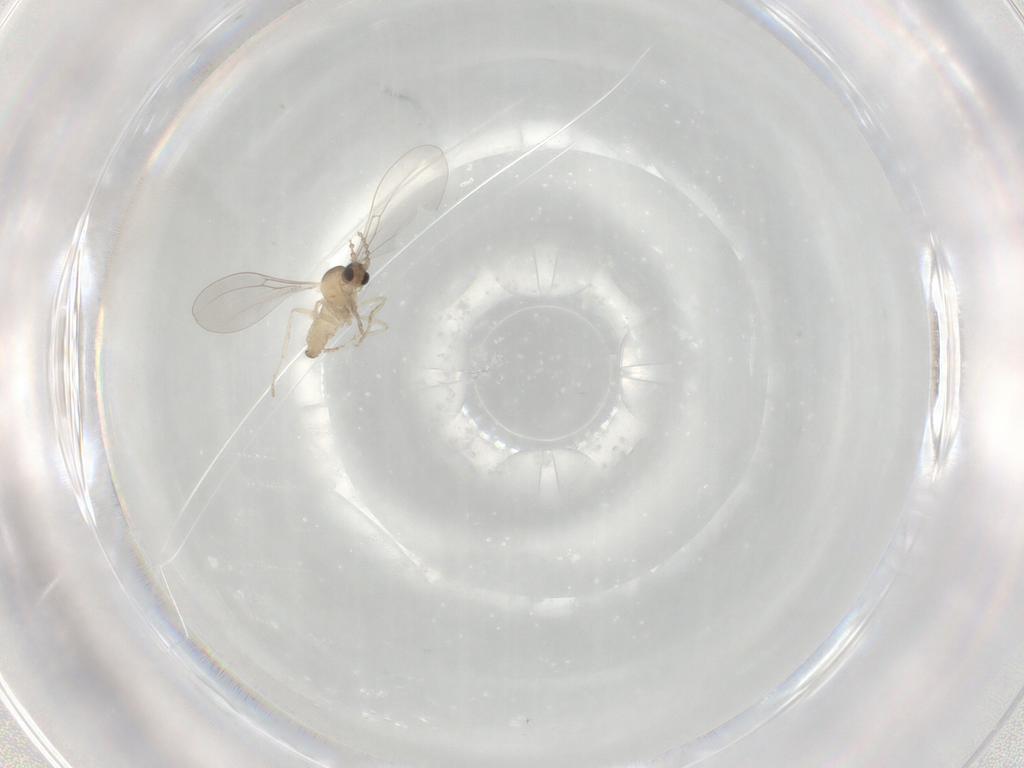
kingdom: Animalia
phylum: Arthropoda
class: Insecta
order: Diptera
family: Cecidomyiidae
